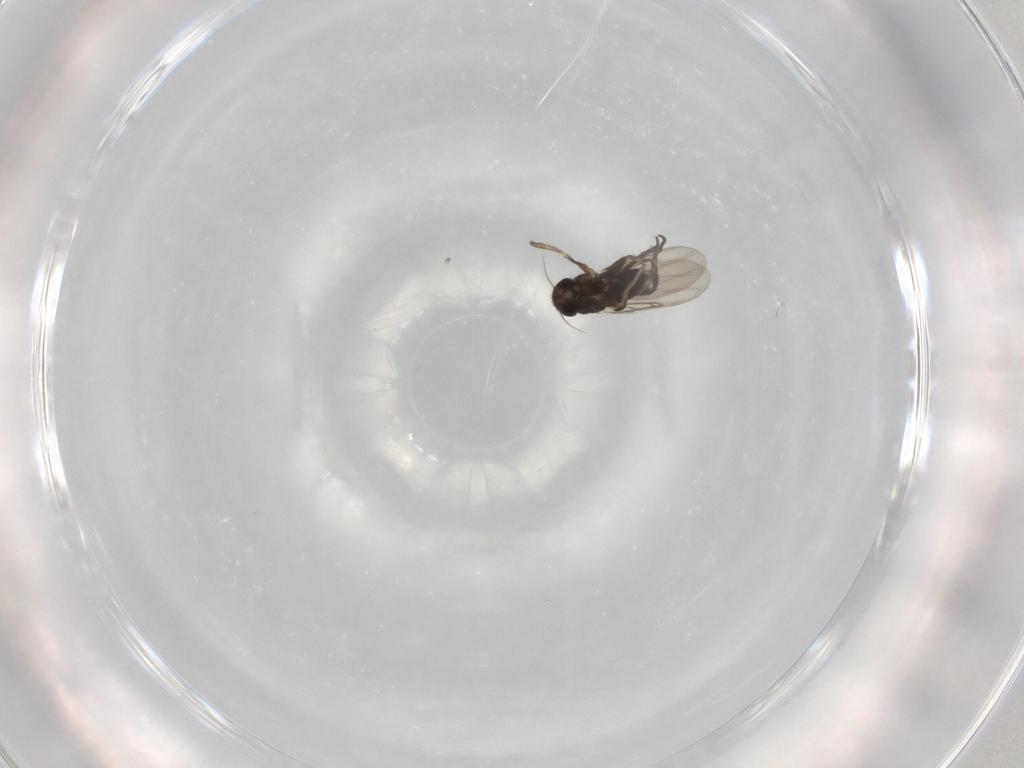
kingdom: Animalia
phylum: Arthropoda
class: Insecta
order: Diptera
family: Phoridae
